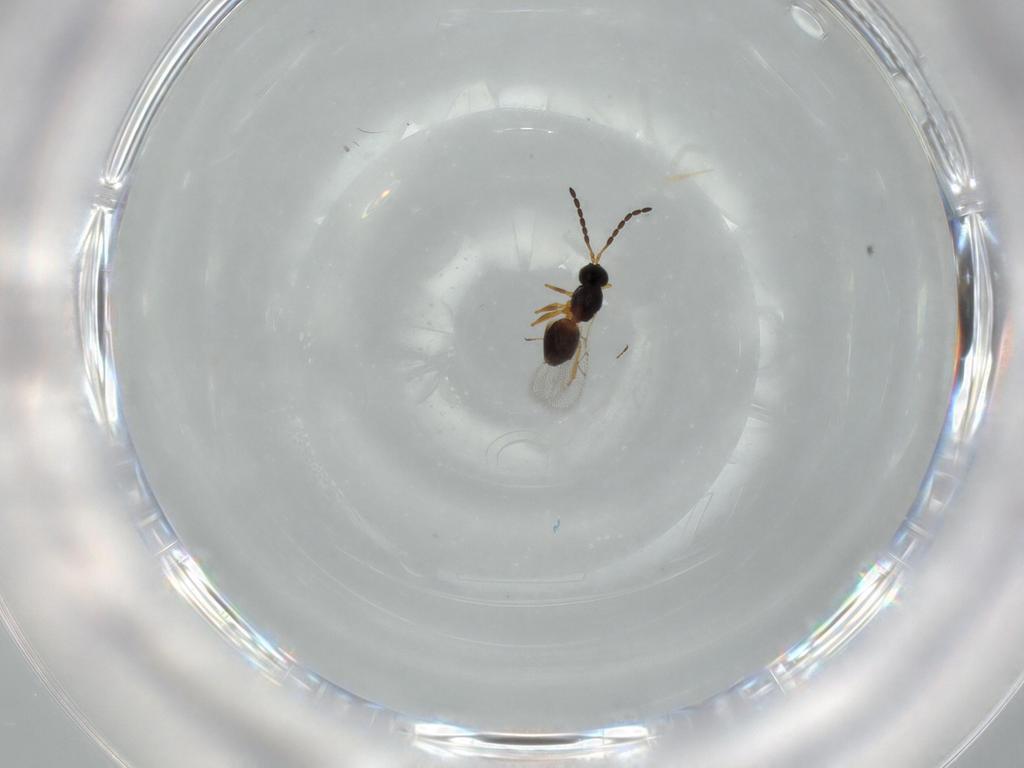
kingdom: Animalia
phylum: Arthropoda
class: Insecta
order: Hymenoptera
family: Figitidae
